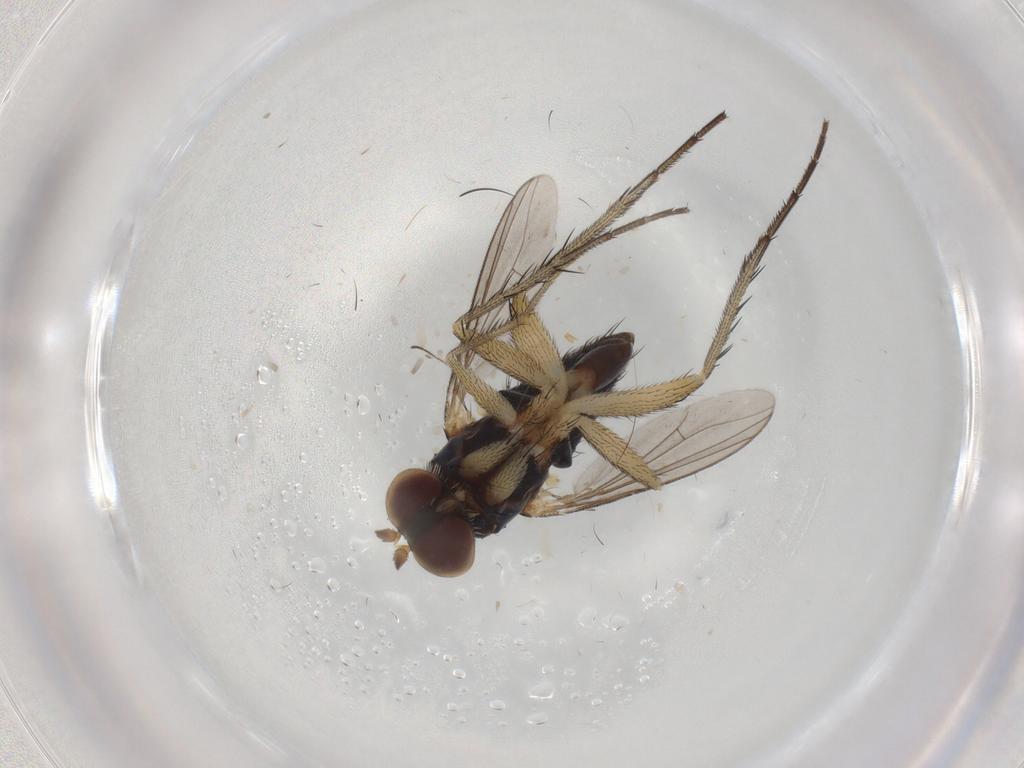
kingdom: Animalia
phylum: Arthropoda
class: Insecta
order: Diptera
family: Dolichopodidae
